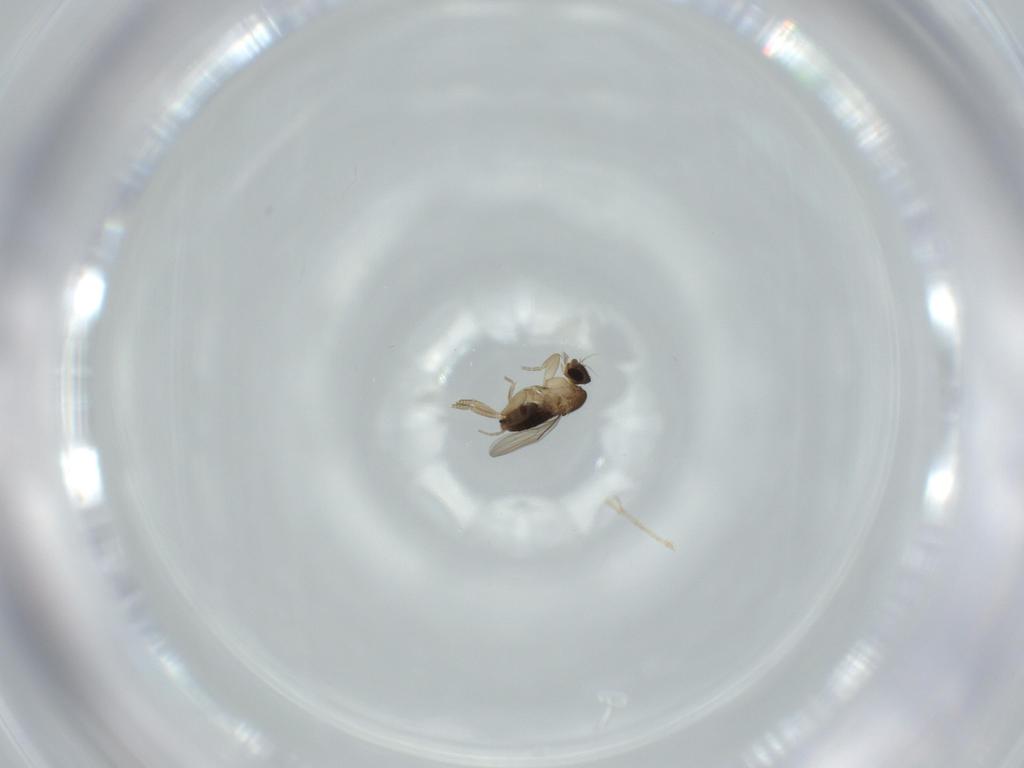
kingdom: Animalia
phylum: Arthropoda
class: Insecta
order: Diptera
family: Phoridae
